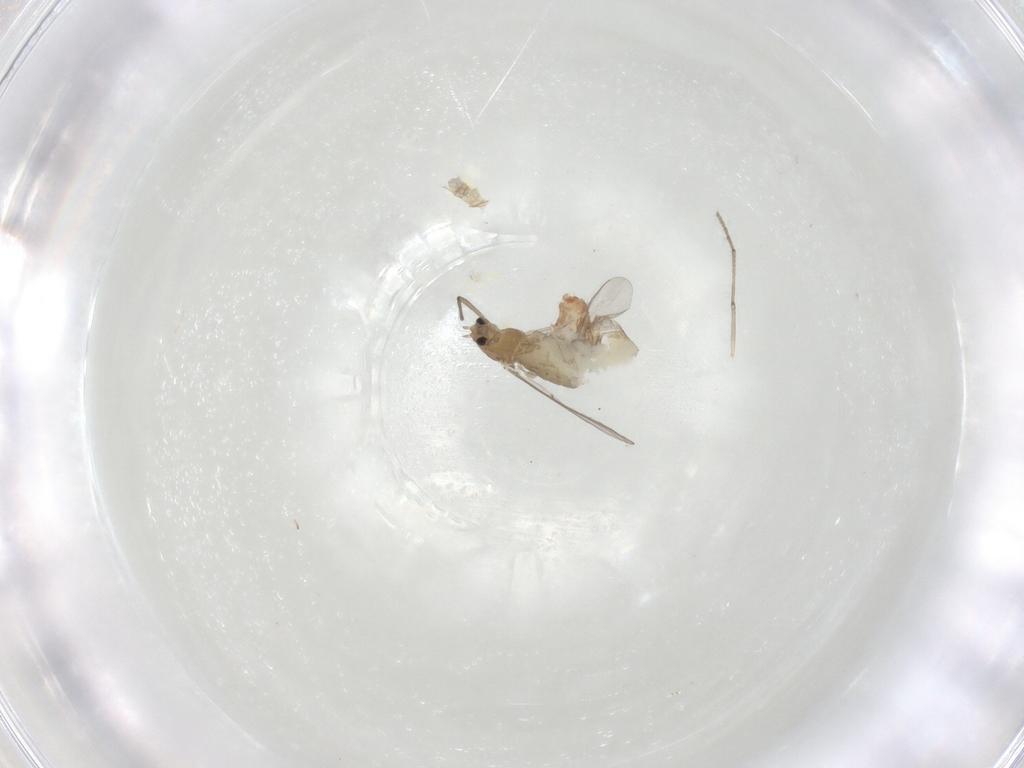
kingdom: Animalia
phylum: Arthropoda
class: Insecta
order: Diptera
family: Chironomidae
